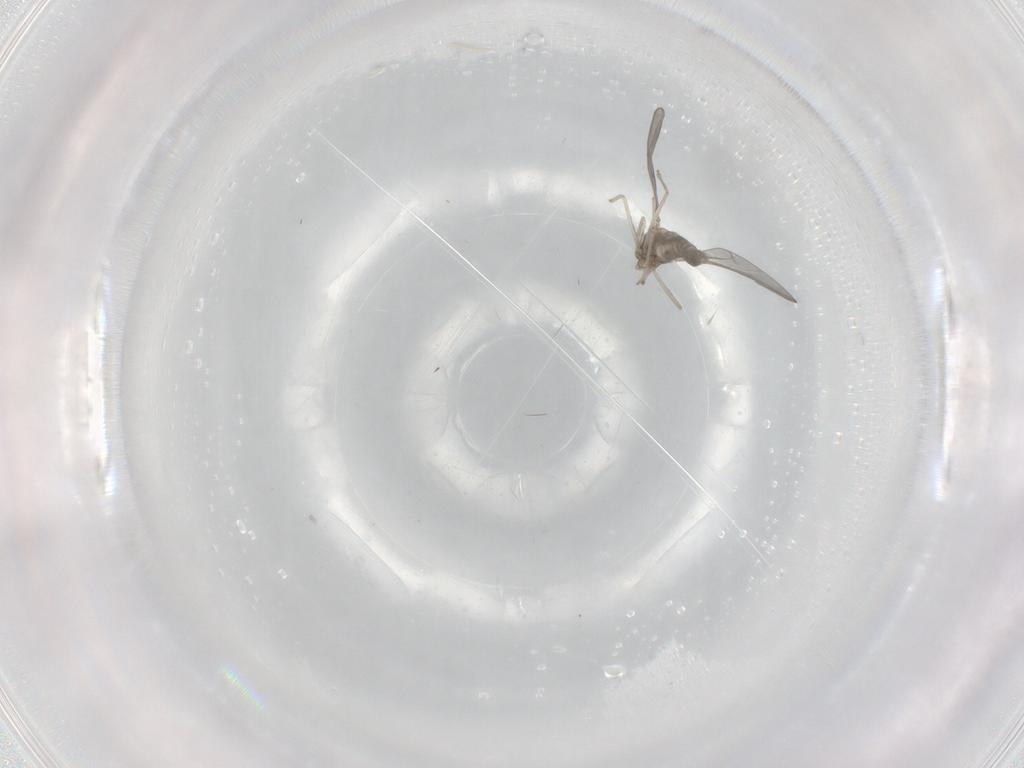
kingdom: Animalia
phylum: Arthropoda
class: Insecta
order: Diptera
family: Cecidomyiidae
